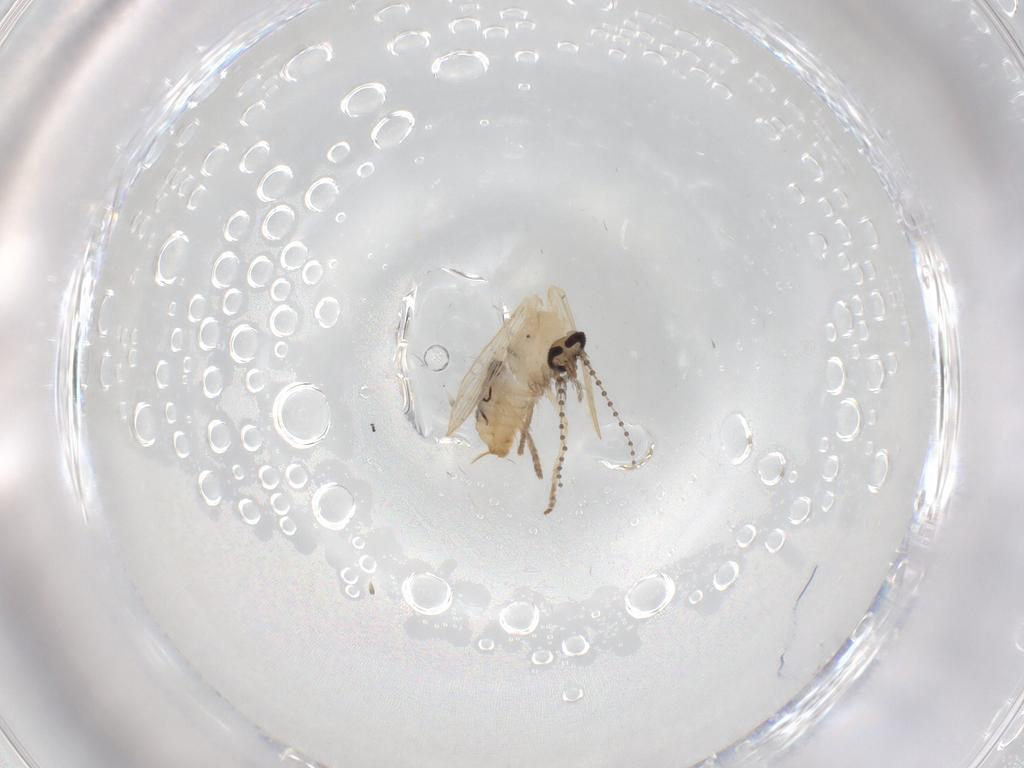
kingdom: Animalia
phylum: Arthropoda
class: Insecta
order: Diptera
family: Psychodidae
